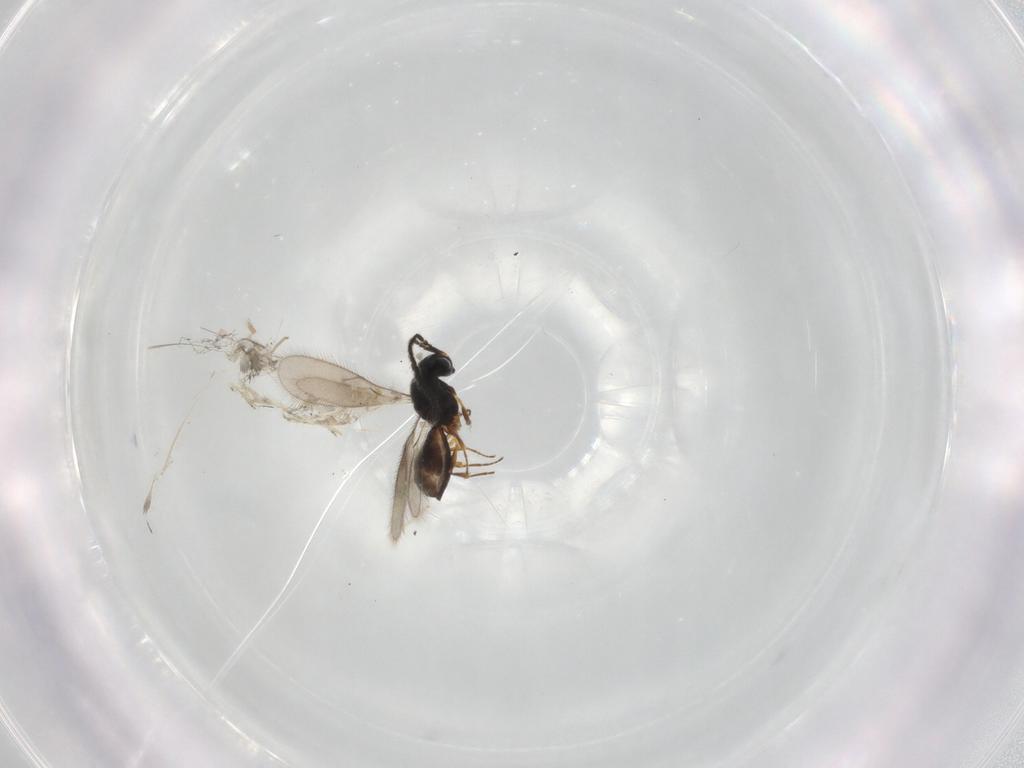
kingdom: Animalia
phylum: Arthropoda
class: Insecta
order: Hymenoptera
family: Scelionidae
